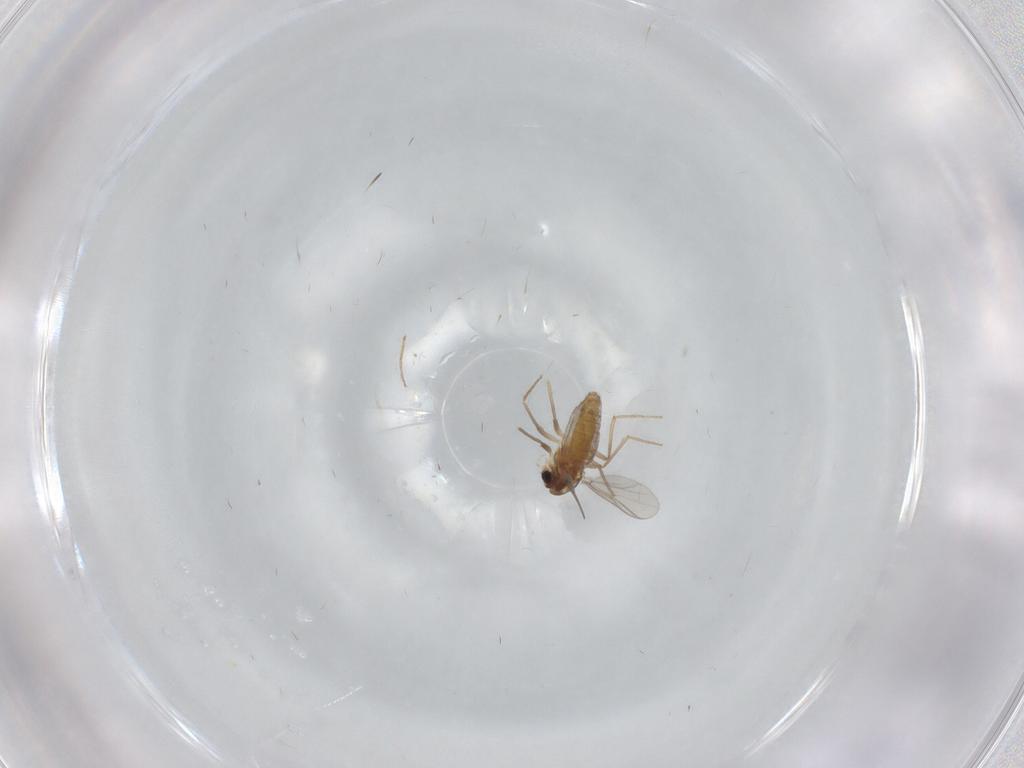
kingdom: Animalia
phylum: Arthropoda
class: Insecta
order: Diptera
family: Chironomidae
